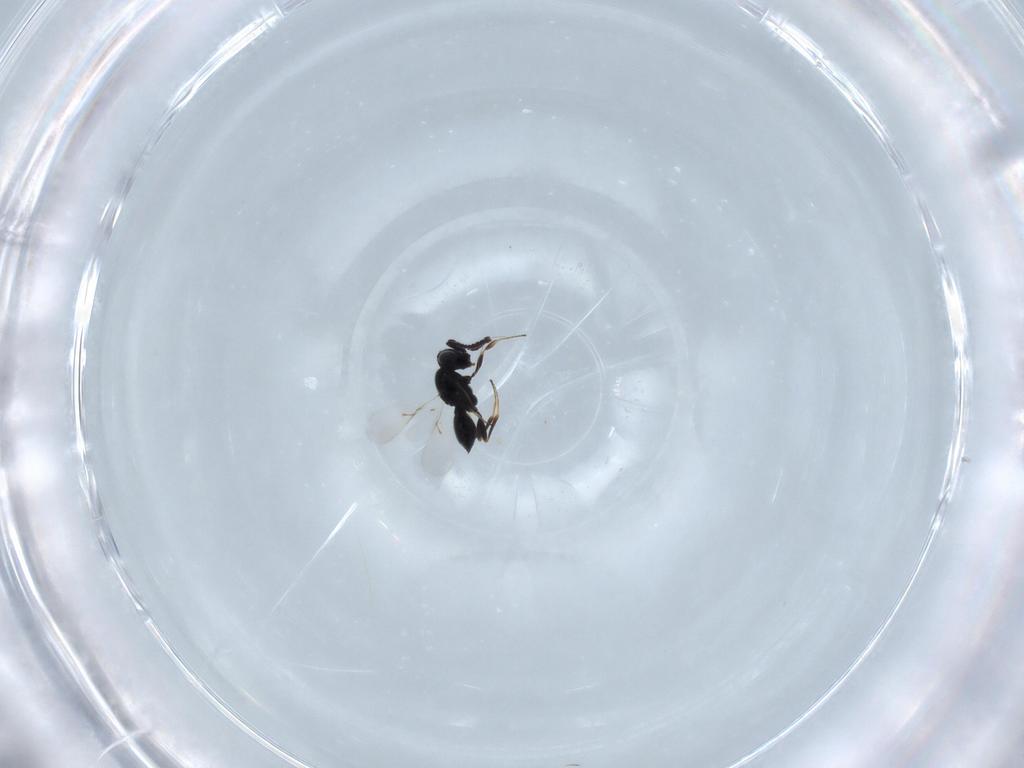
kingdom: Animalia
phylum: Arthropoda
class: Insecta
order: Hymenoptera
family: Scelionidae
